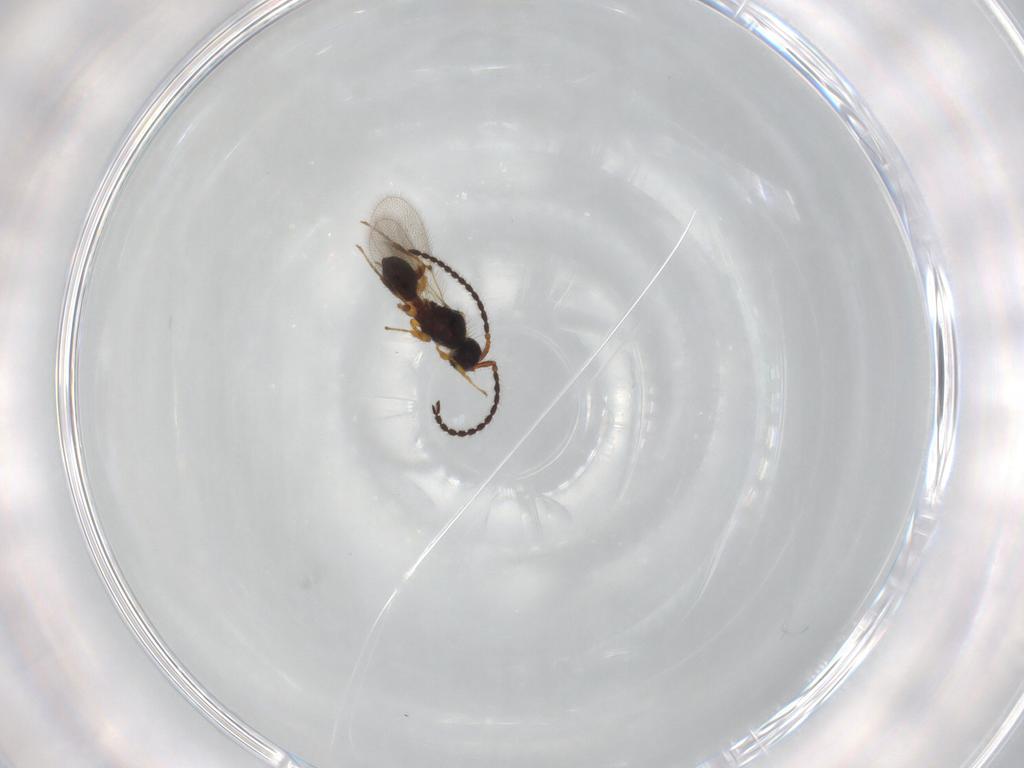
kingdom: Animalia
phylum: Arthropoda
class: Insecta
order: Hymenoptera
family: Diapriidae
